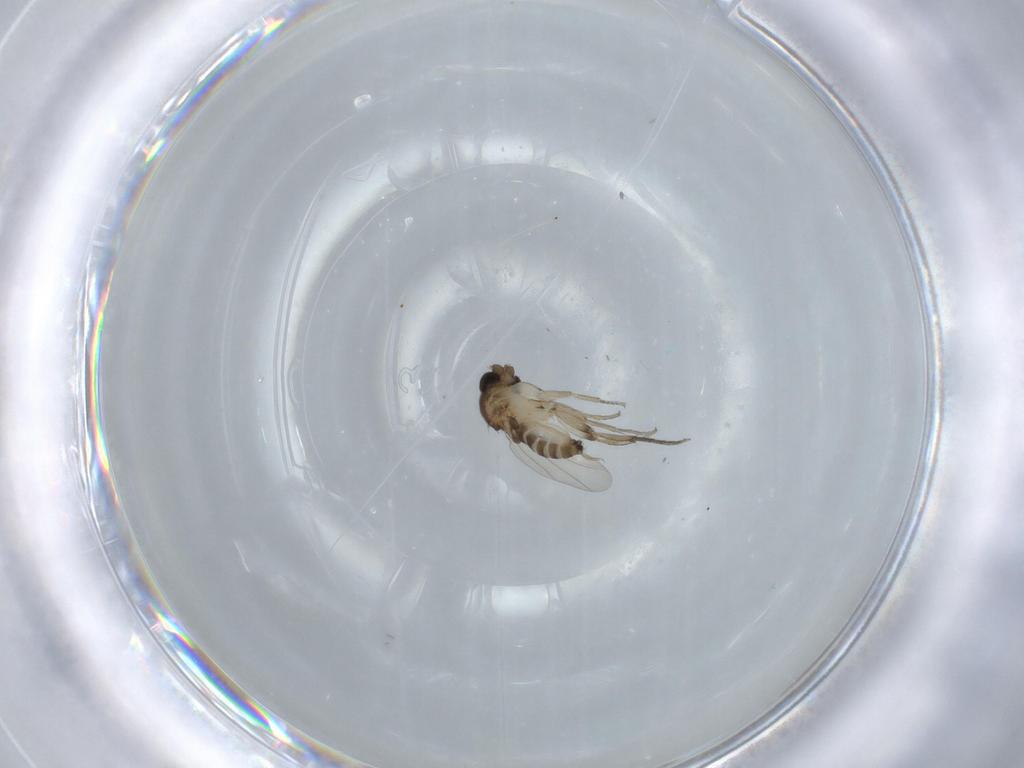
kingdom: Animalia
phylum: Arthropoda
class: Insecta
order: Diptera
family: Phoridae
